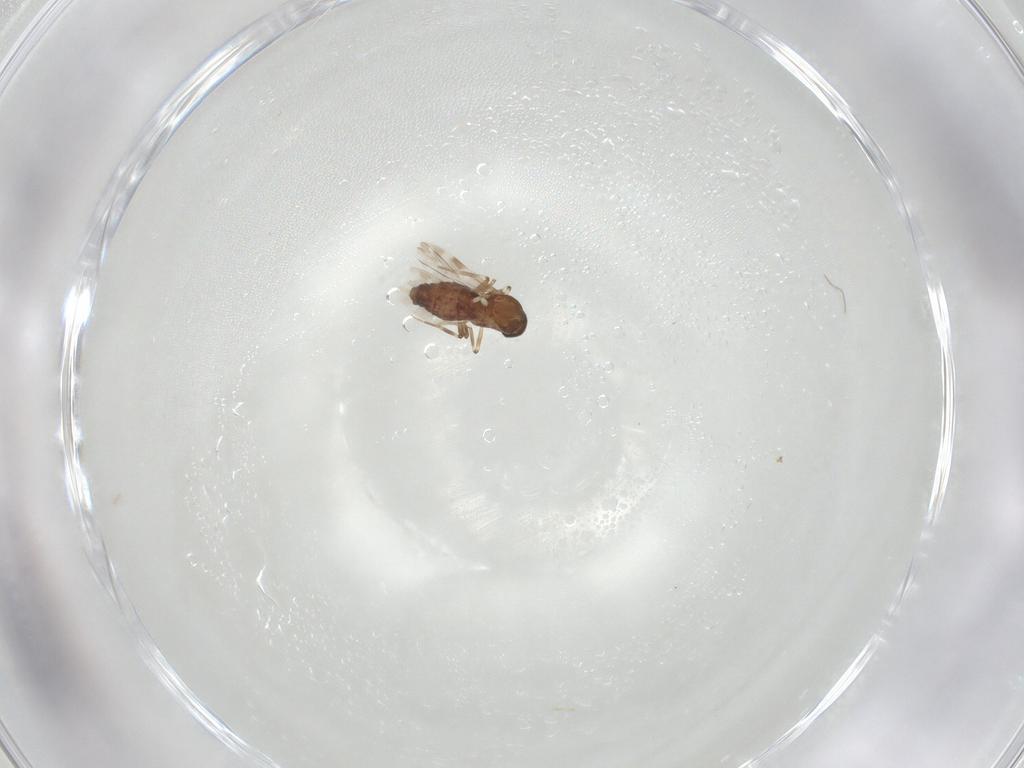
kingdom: Animalia
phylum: Arthropoda
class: Insecta
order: Diptera
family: Ceratopogonidae
